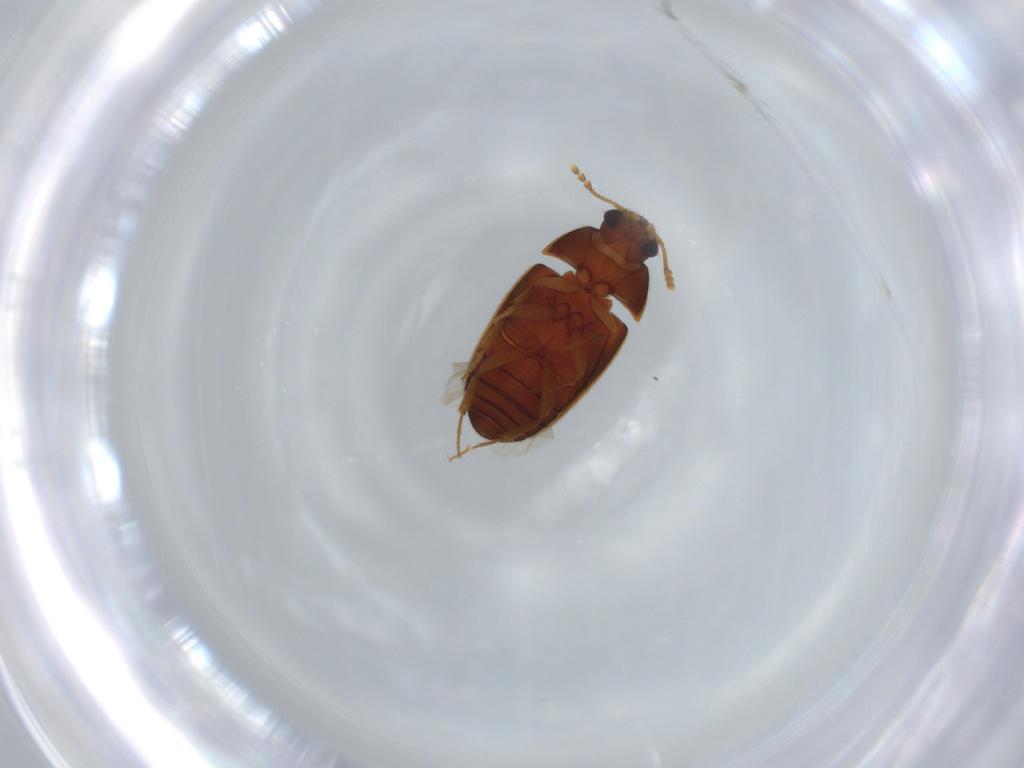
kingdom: Animalia
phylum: Arthropoda
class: Insecta
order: Coleoptera
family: Mycetophagidae
